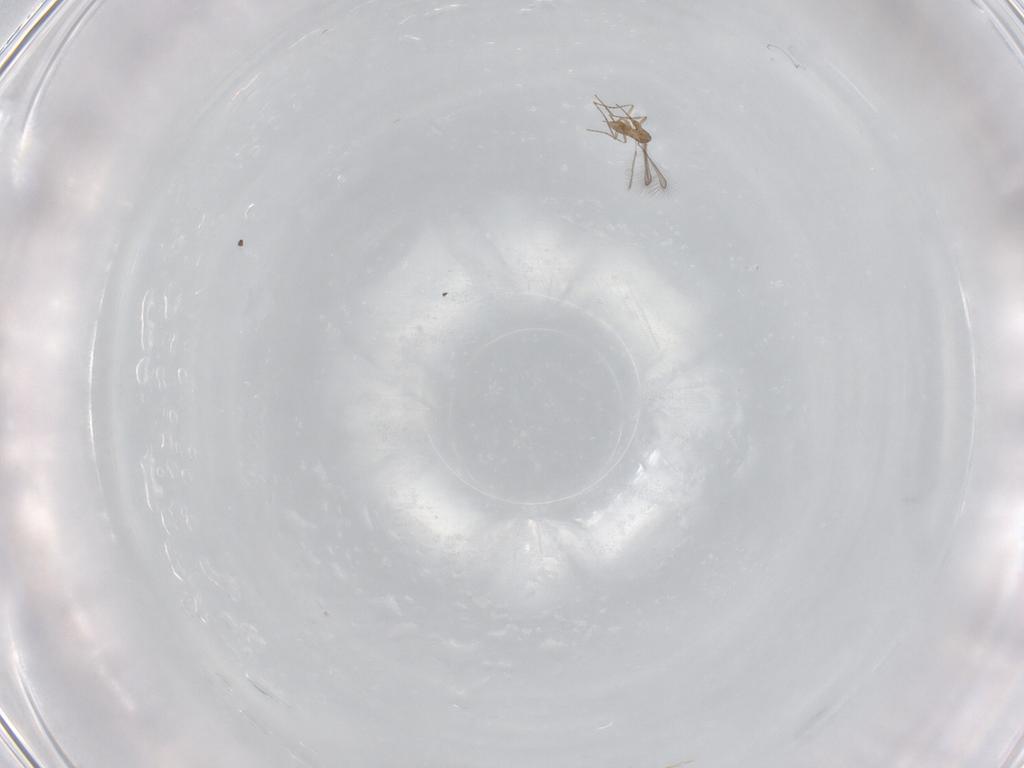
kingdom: Animalia
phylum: Arthropoda
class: Insecta
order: Hymenoptera
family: Mymaridae
